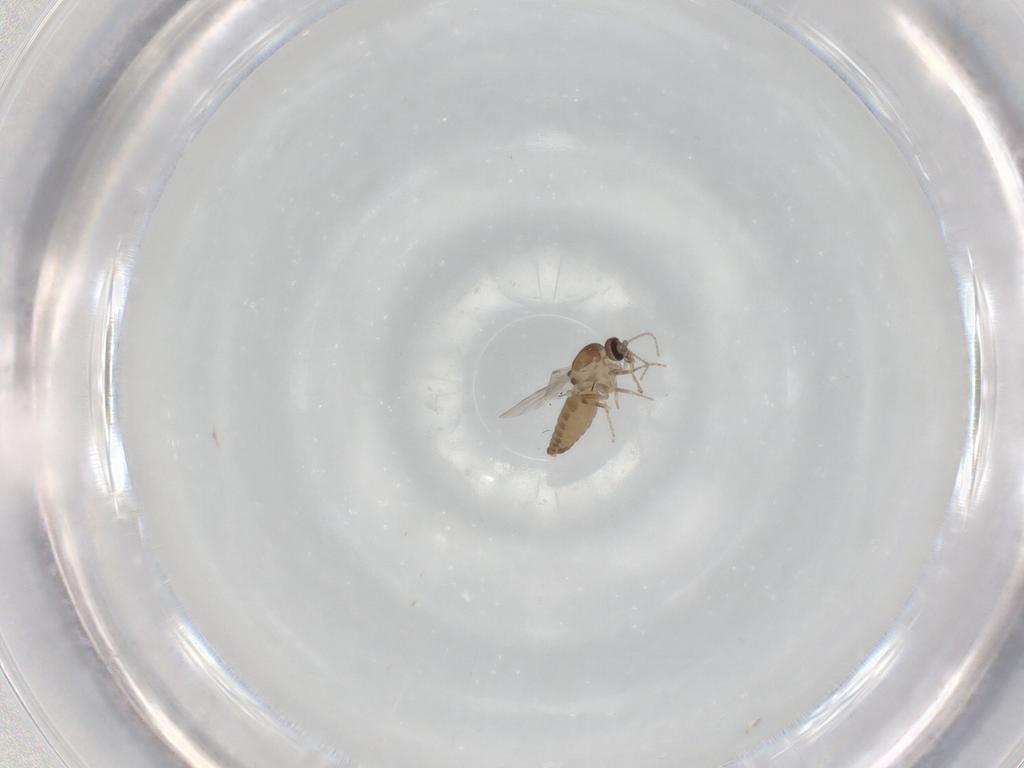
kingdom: Animalia
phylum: Arthropoda
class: Insecta
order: Diptera
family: Ceratopogonidae
